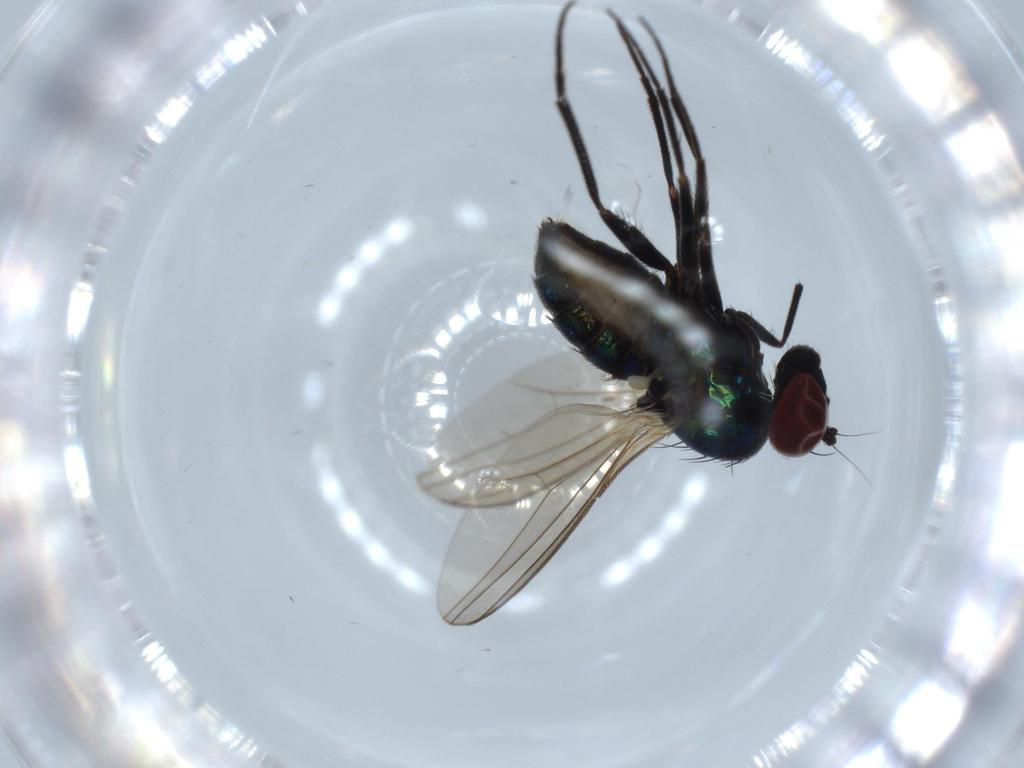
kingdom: Animalia
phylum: Arthropoda
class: Insecta
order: Diptera
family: Dolichopodidae
